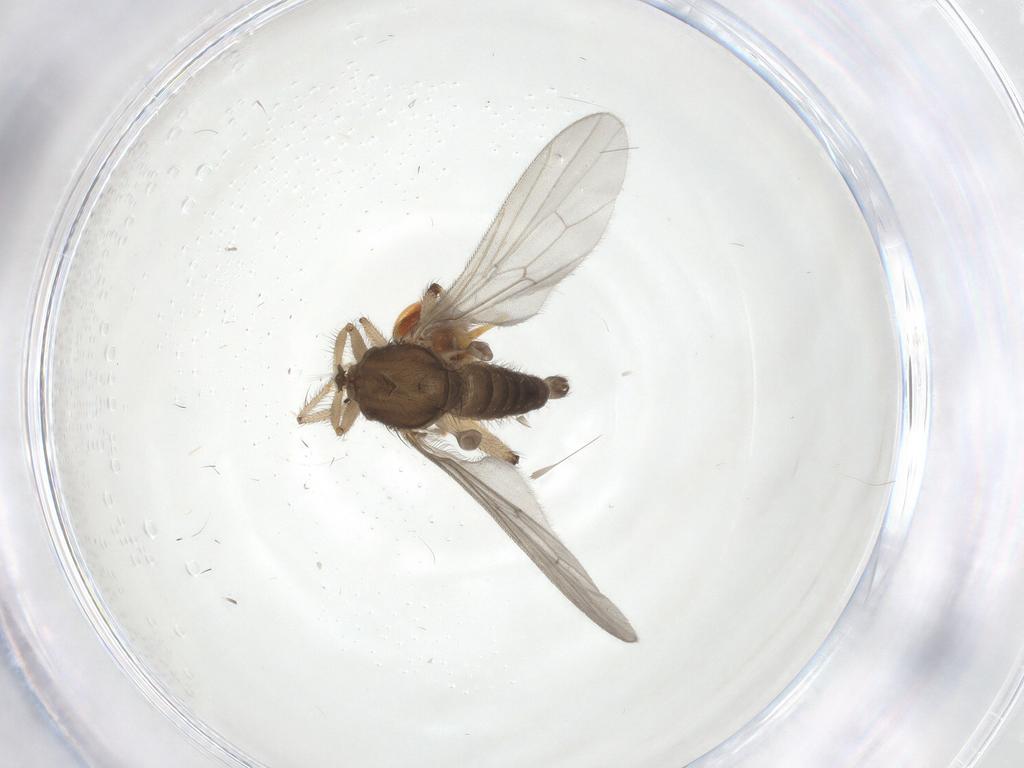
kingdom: Animalia
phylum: Arthropoda
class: Insecta
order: Diptera
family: Hybotidae
